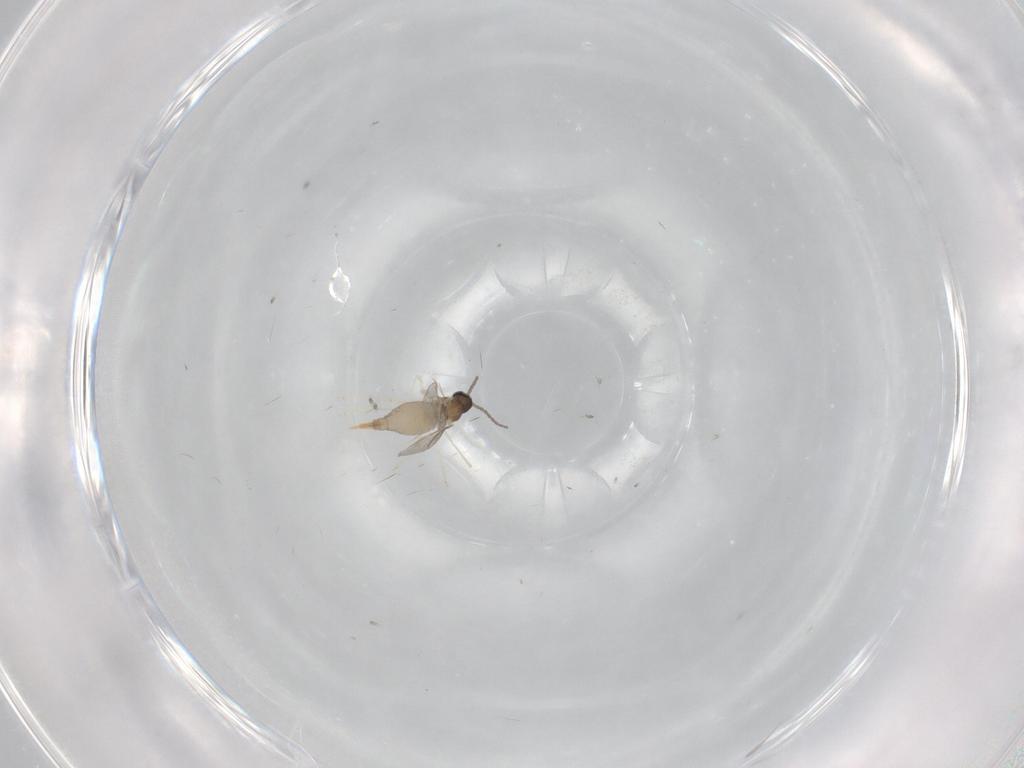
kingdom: Animalia
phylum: Arthropoda
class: Insecta
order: Diptera
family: Cecidomyiidae
